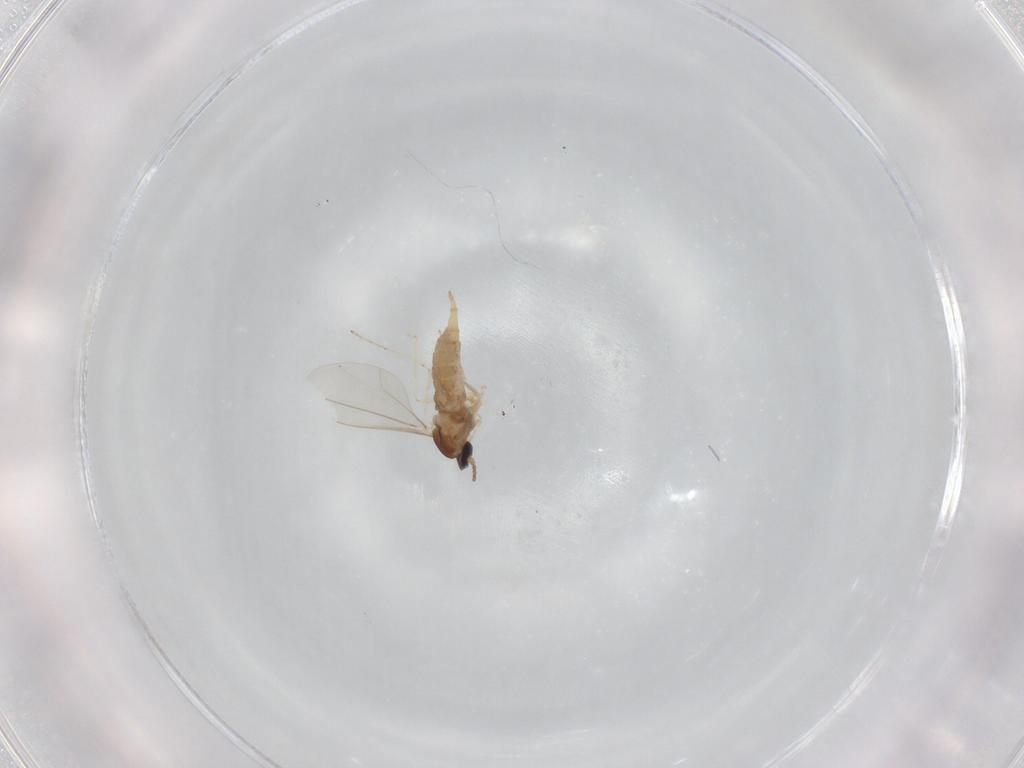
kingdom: Animalia
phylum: Arthropoda
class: Insecta
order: Diptera
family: Cecidomyiidae
